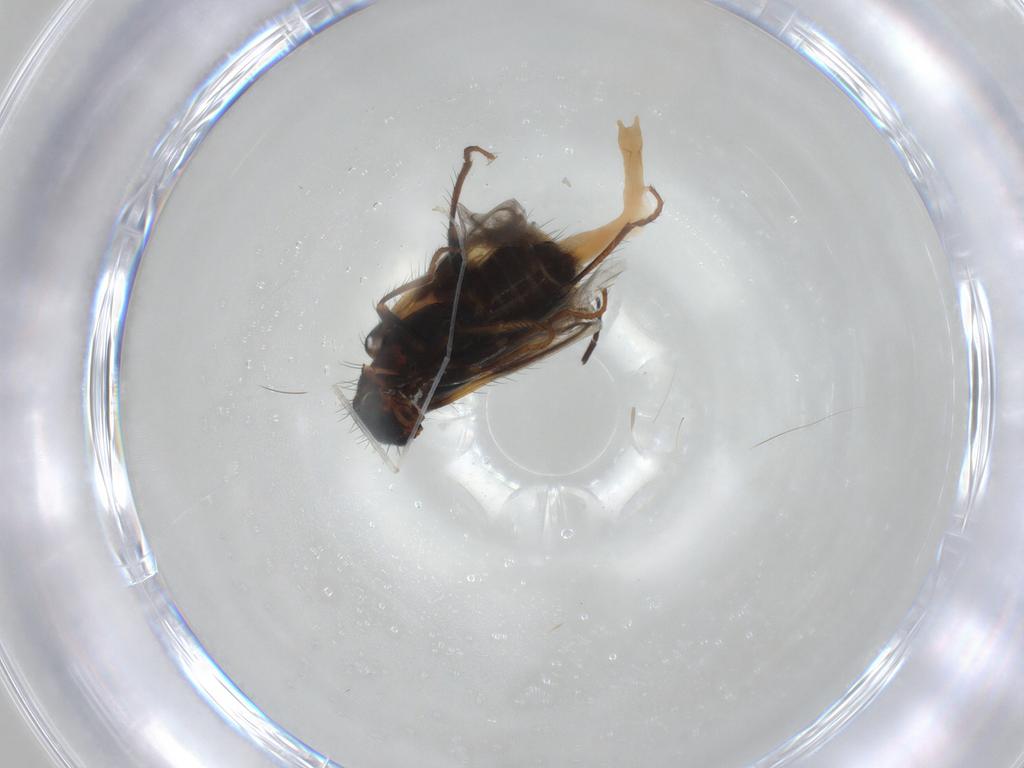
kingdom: Animalia
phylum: Arthropoda
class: Insecta
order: Coleoptera
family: Melyridae
